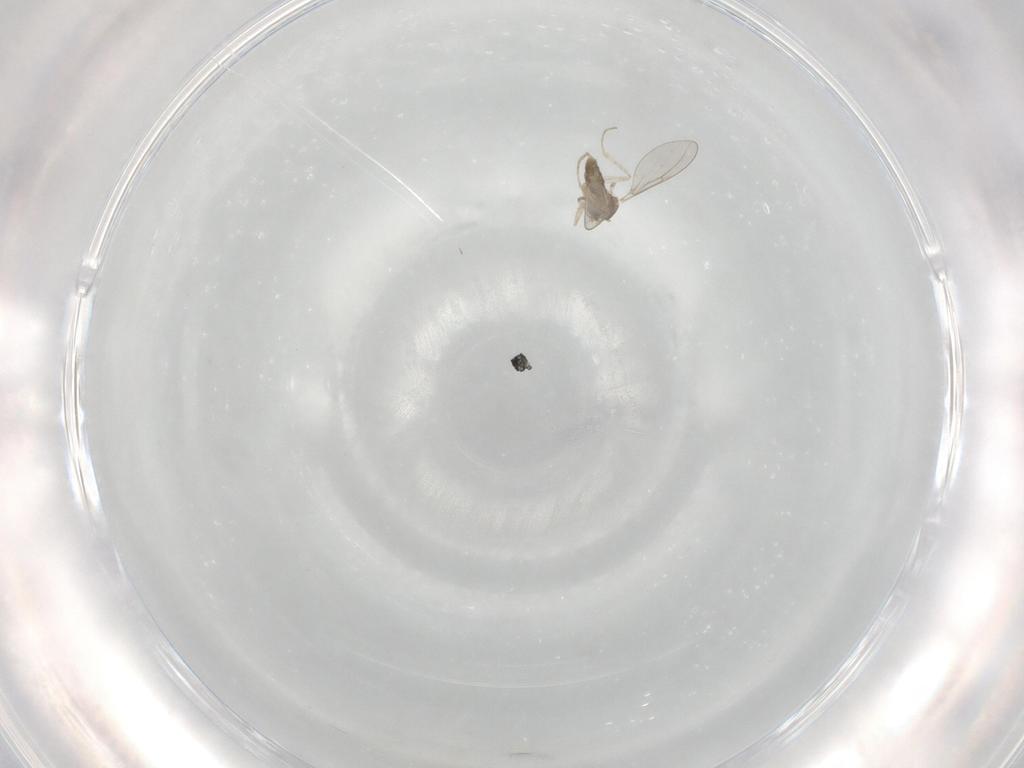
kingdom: Animalia
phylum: Arthropoda
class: Insecta
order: Diptera
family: Cecidomyiidae
